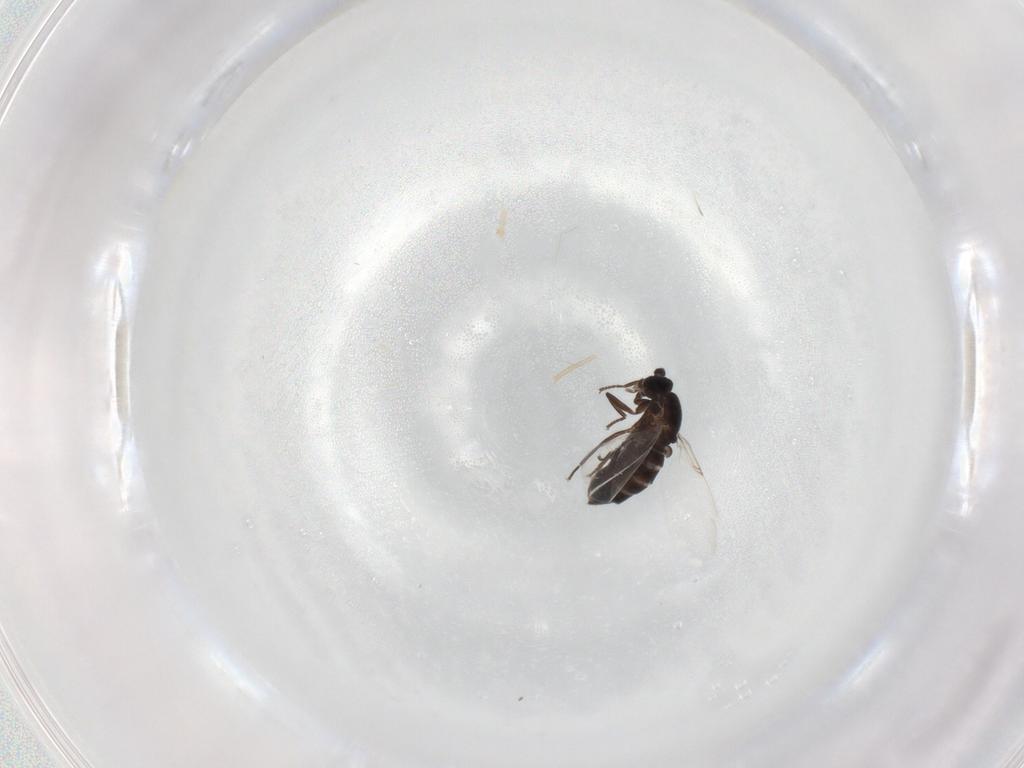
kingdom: Animalia
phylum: Arthropoda
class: Insecta
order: Diptera
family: Scatopsidae
